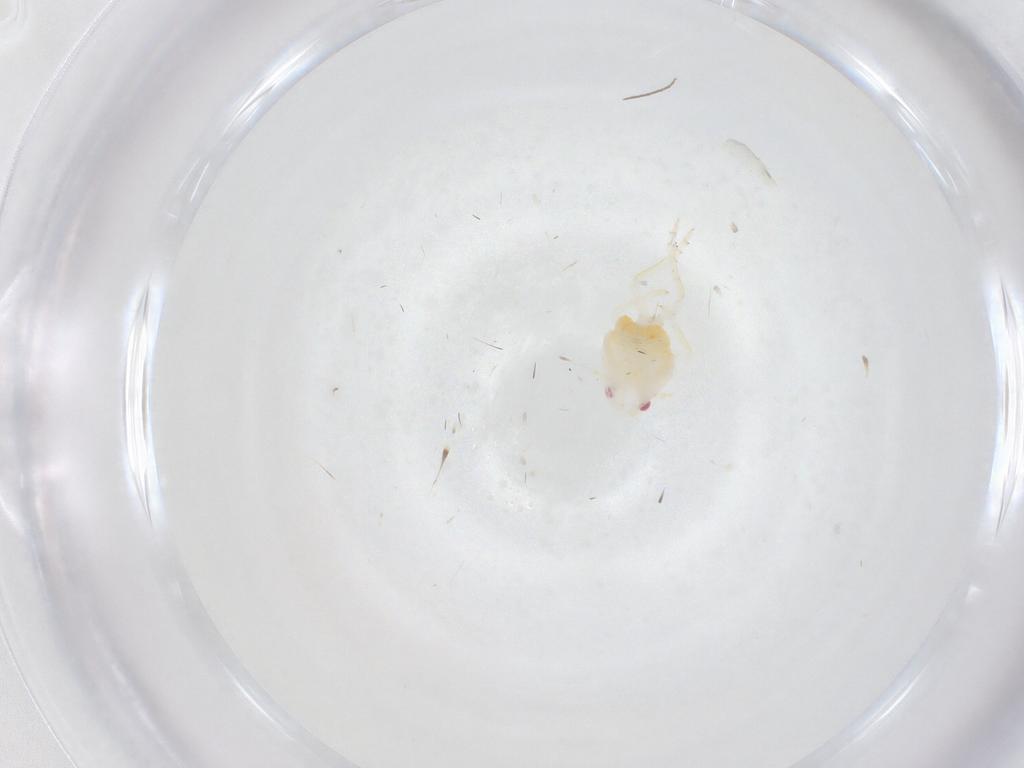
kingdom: Animalia
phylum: Arthropoda
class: Insecta
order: Hemiptera
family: Fulgoroidea_incertae_sedis
